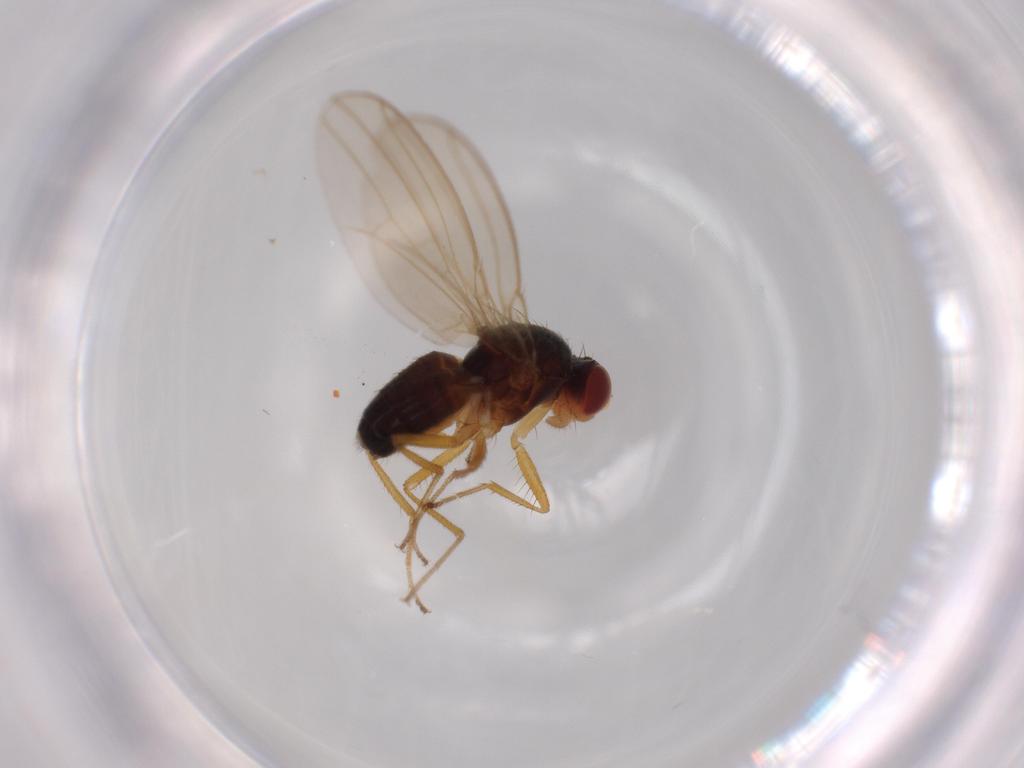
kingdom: Animalia
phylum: Arthropoda
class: Insecta
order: Diptera
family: Drosophilidae
